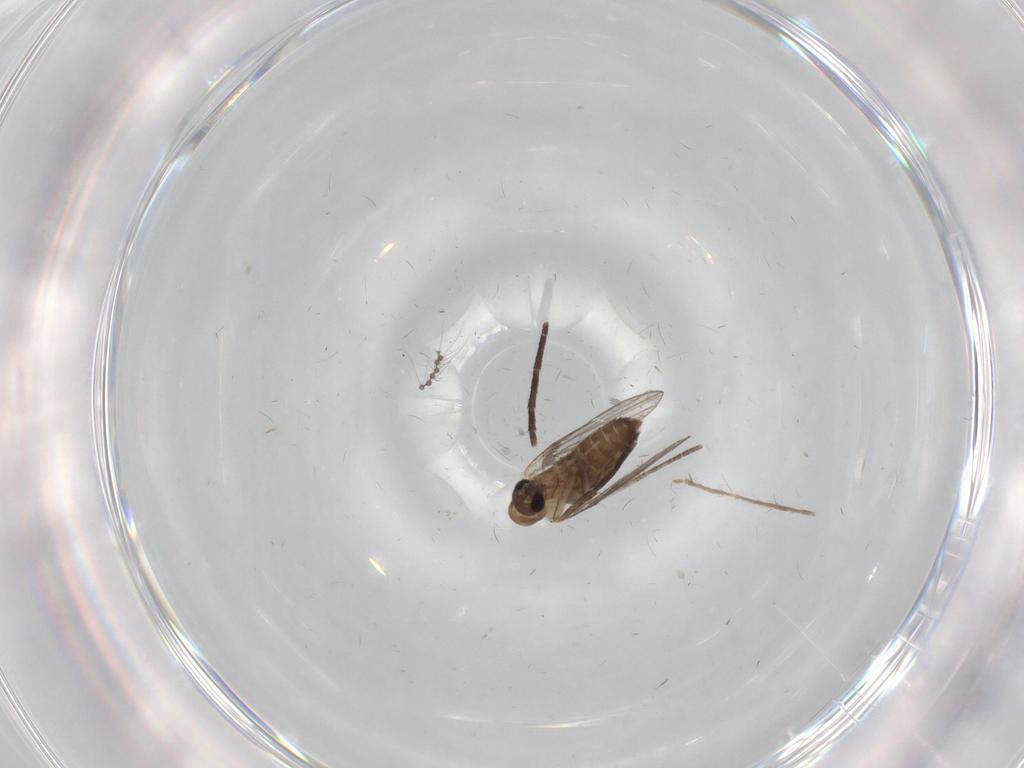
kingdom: Animalia
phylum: Arthropoda
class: Insecta
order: Diptera
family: Chironomidae
